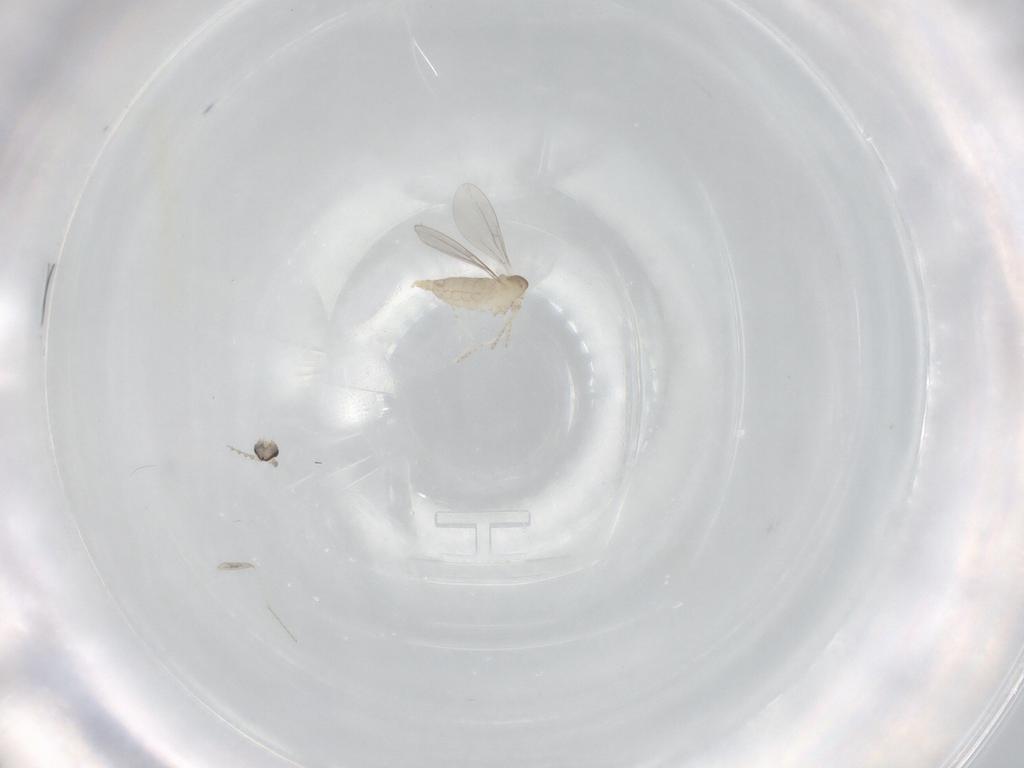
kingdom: Animalia
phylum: Arthropoda
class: Insecta
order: Diptera
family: Cecidomyiidae
